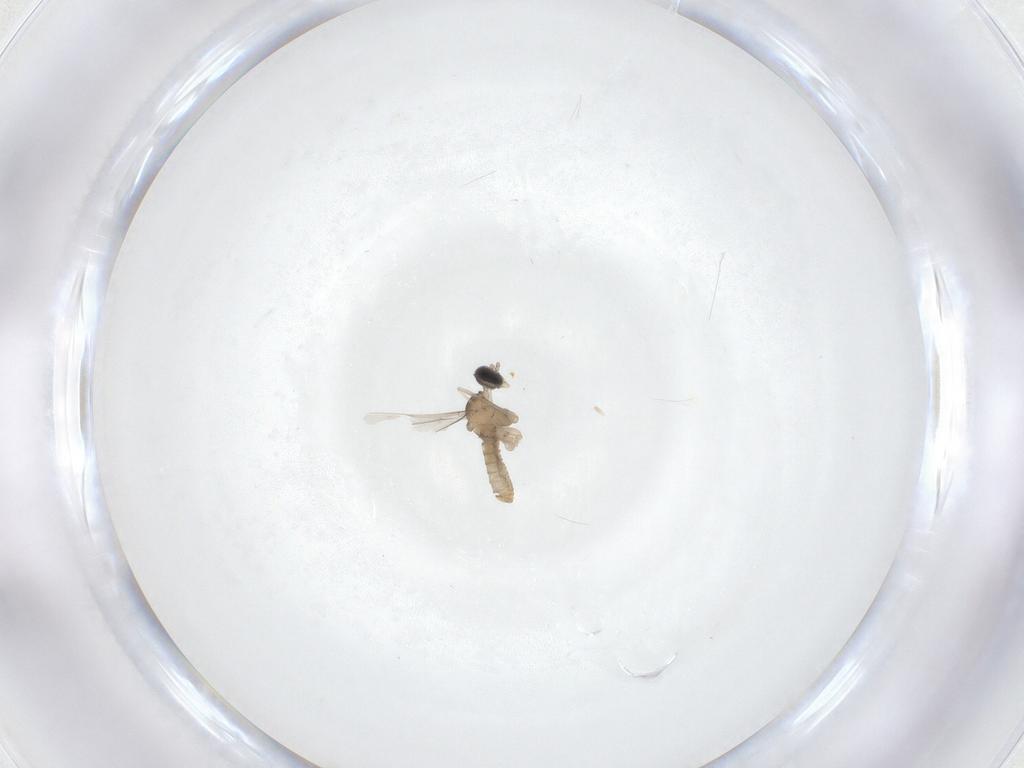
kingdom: Animalia
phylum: Arthropoda
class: Insecta
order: Diptera
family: Cecidomyiidae
